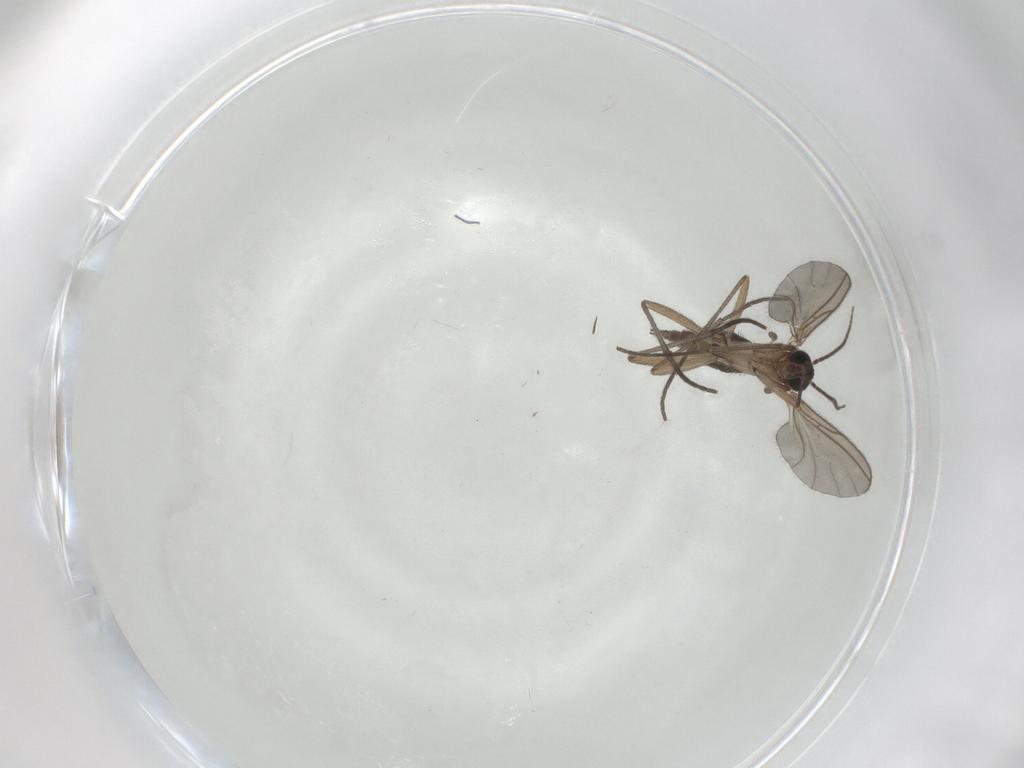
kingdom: Animalia
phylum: Arthropoda
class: Insecta
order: Diptera
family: Sciaridae
